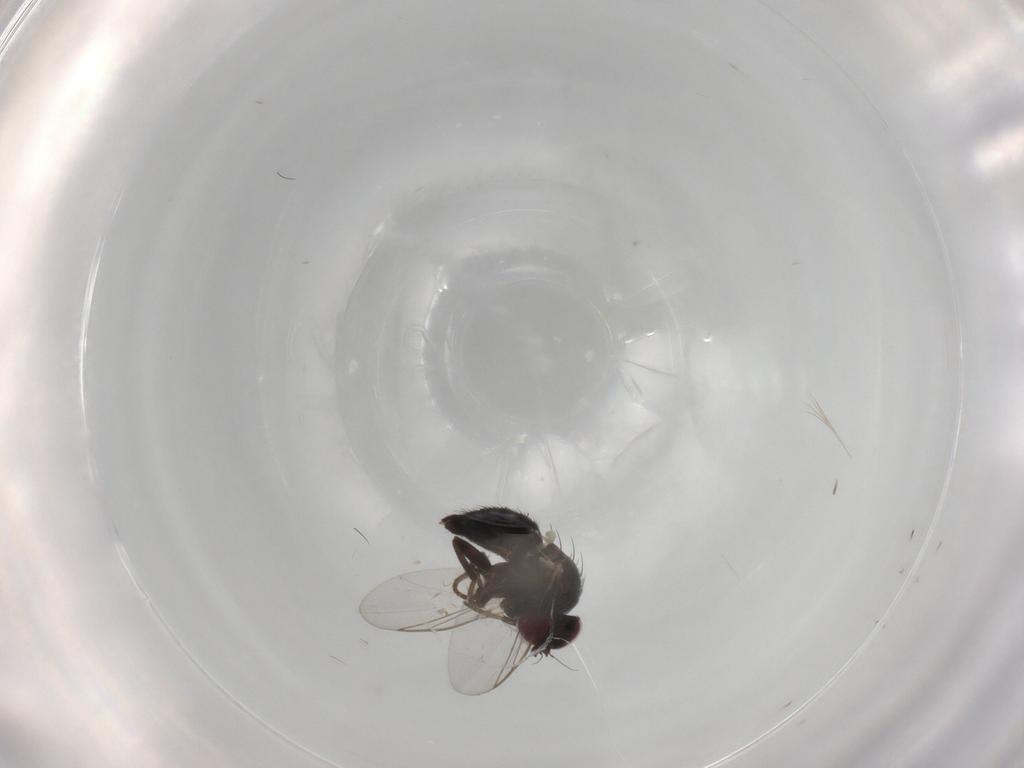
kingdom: Animalia
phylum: Arthropoda
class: Insecta
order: Diptera
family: Agromyzidae
